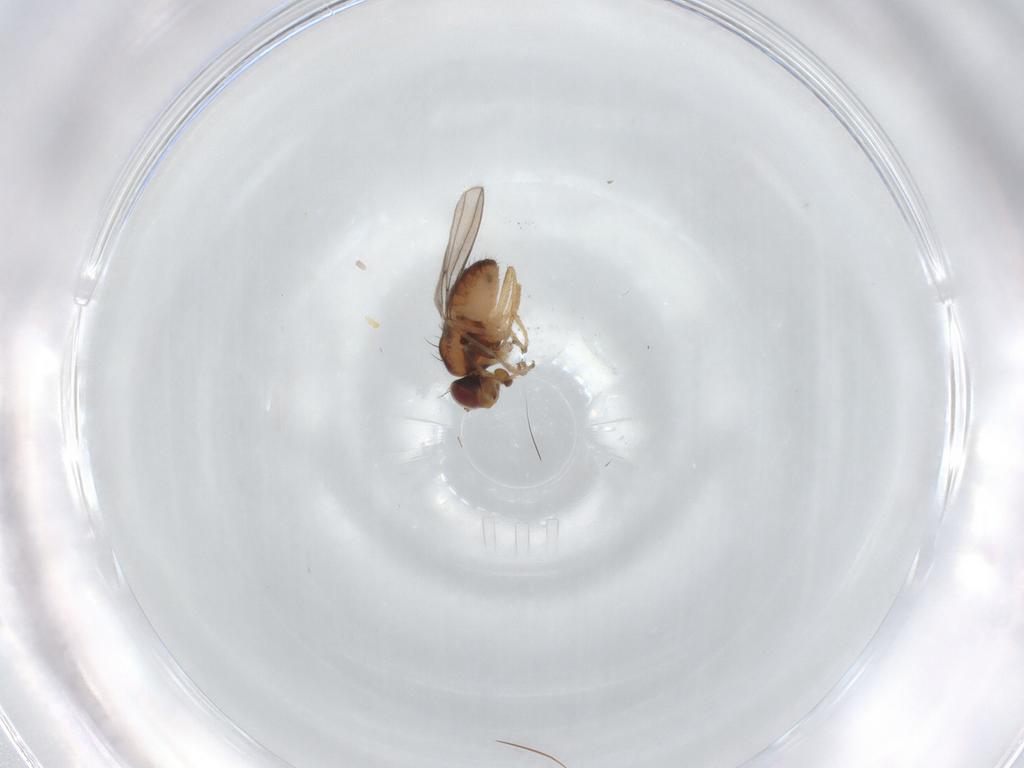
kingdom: Animalia
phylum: Arthropoda
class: Insecta
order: Diptera
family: Ephydridae
